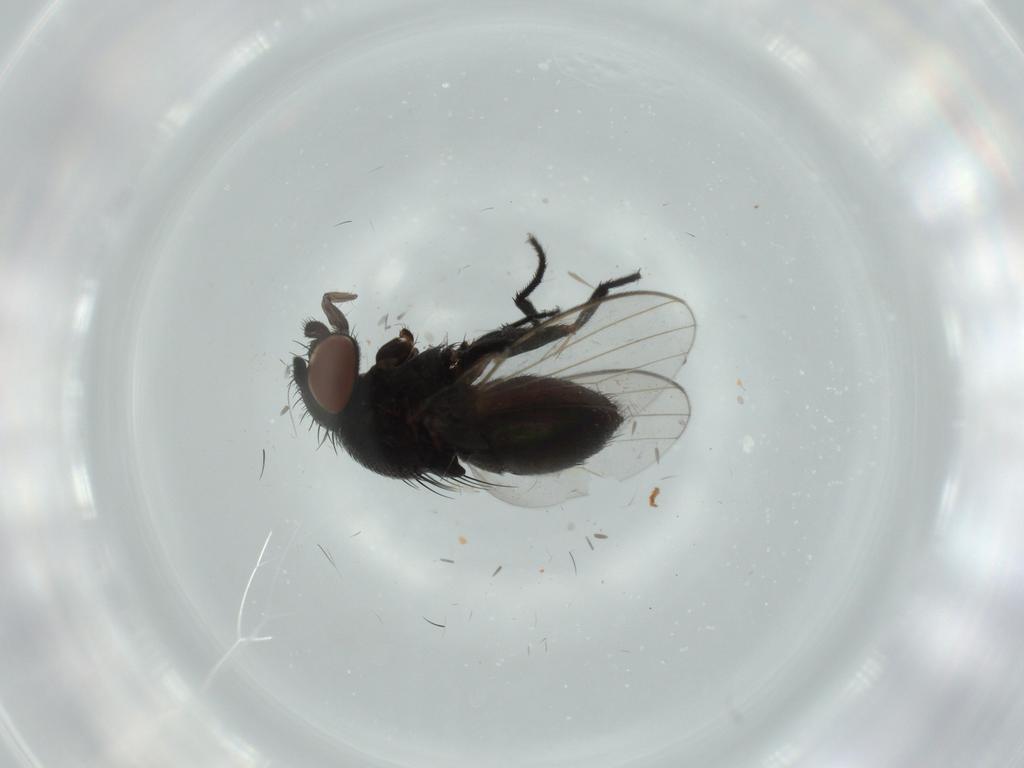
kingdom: Animalia
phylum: Arthropoda
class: Insecta
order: Diptera
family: Milichiidae
